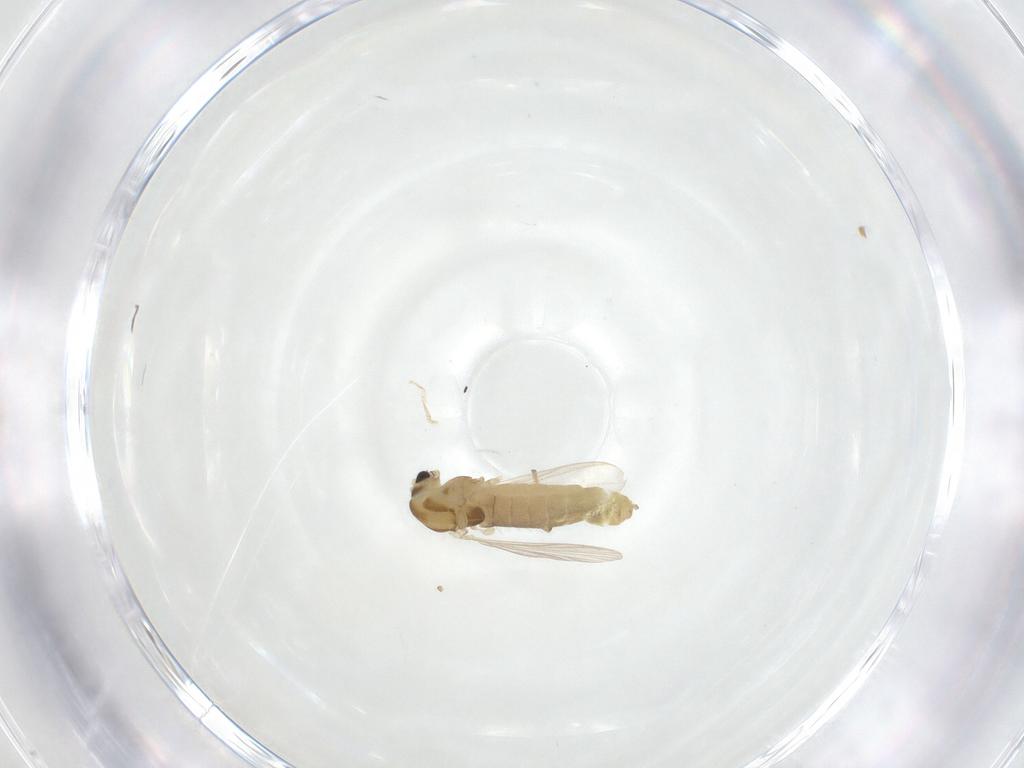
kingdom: Animalia
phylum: Arthropoda
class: Insecta
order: Diptera
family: Chironomidae
